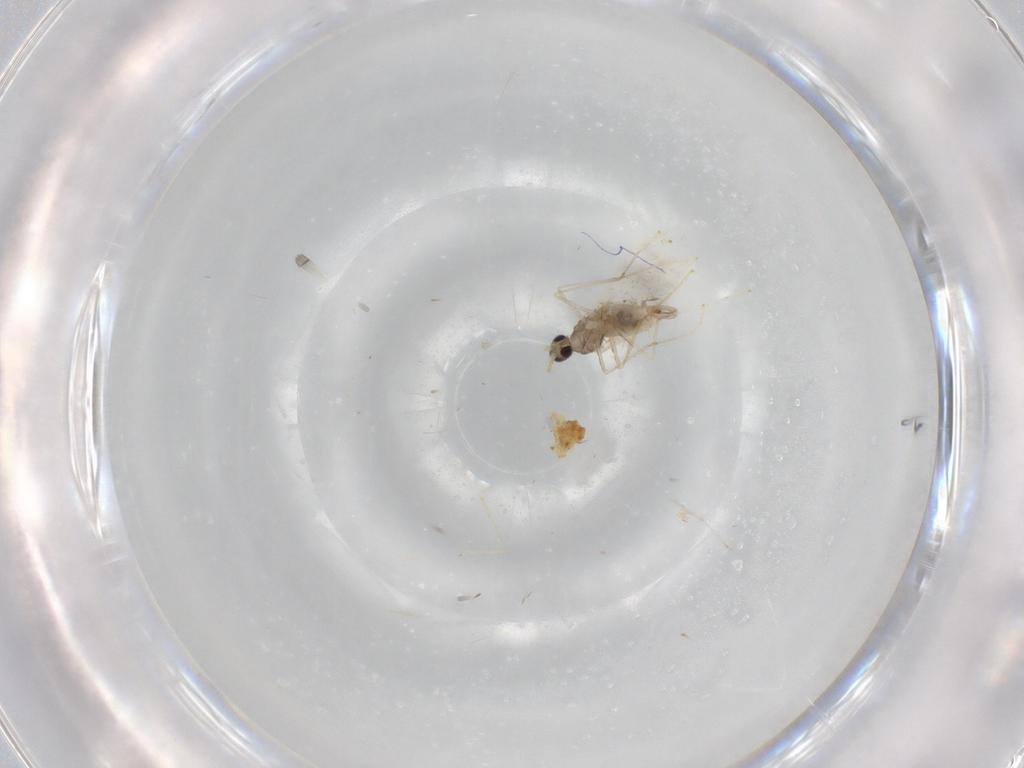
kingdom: Animalia
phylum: Arthropoda
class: Insecta
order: Diptera
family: Cecidomyiidae
